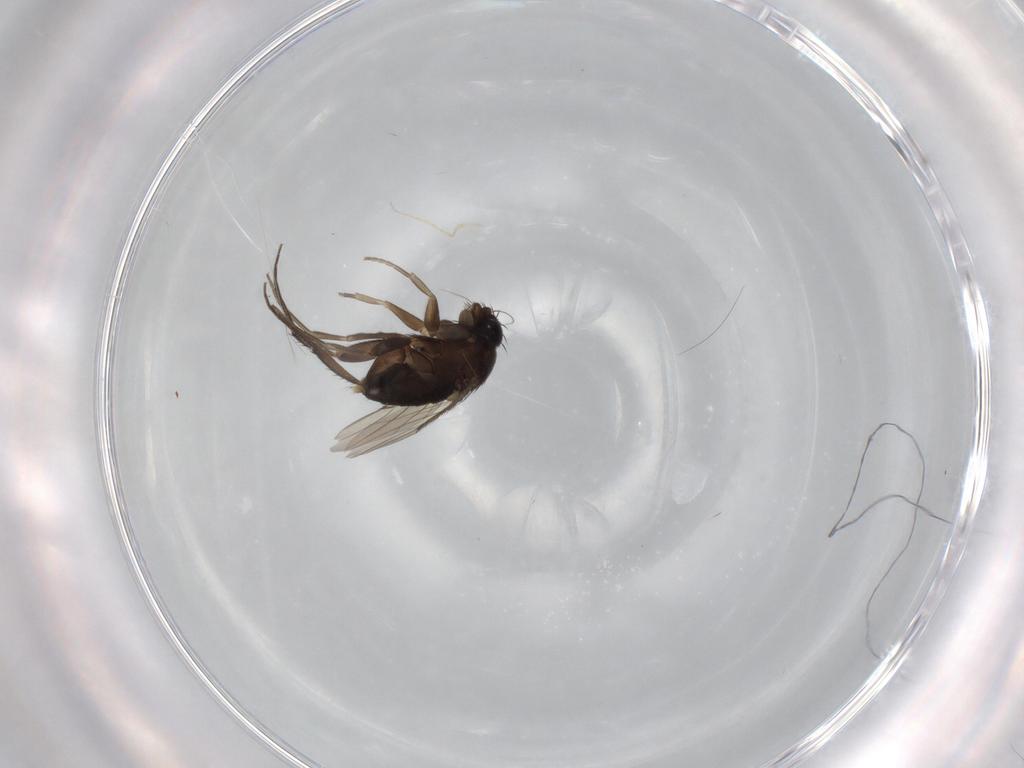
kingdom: Animalia
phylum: Arthropoda
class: Insecta
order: Diptera
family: Phoridae
